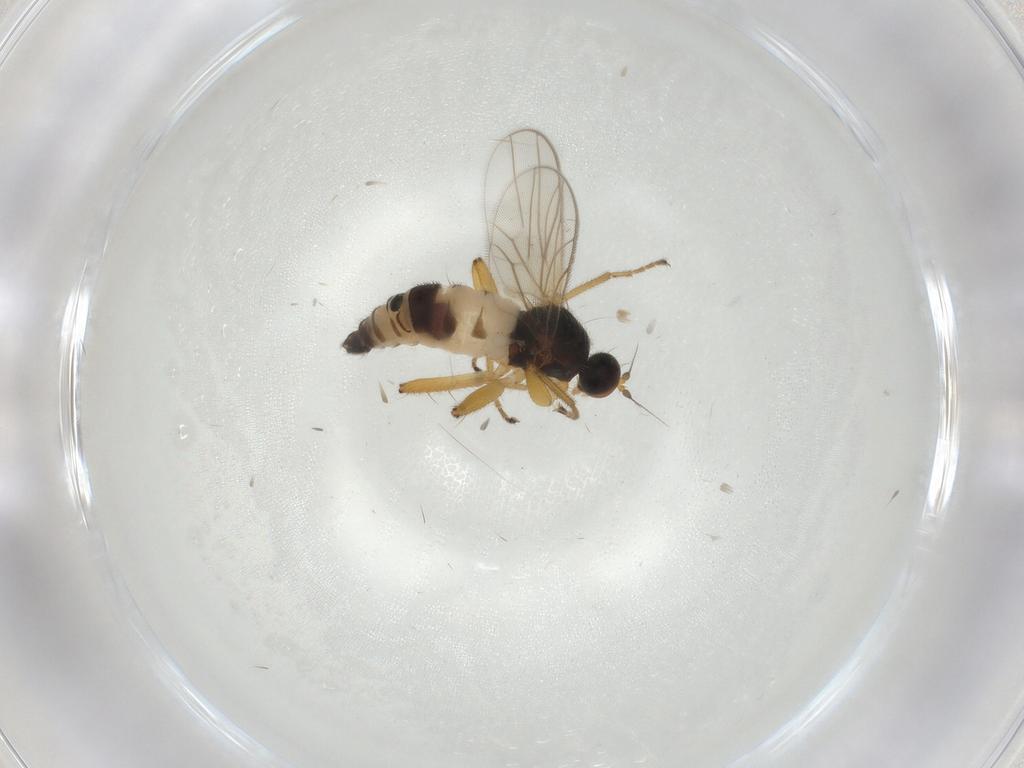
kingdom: Animalia
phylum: Arthropoda
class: Insecta
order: Diptera
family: Hybotidae
